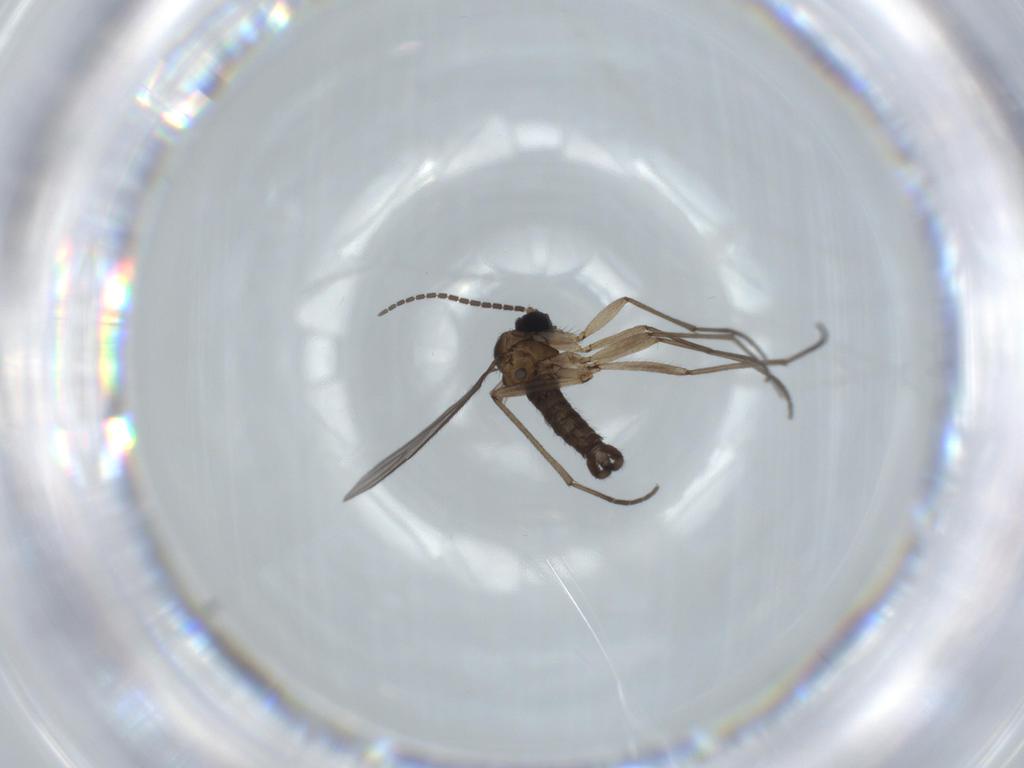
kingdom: Animalia
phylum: Arthropoda
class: Insecta
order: Diptera
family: Sciaridae
